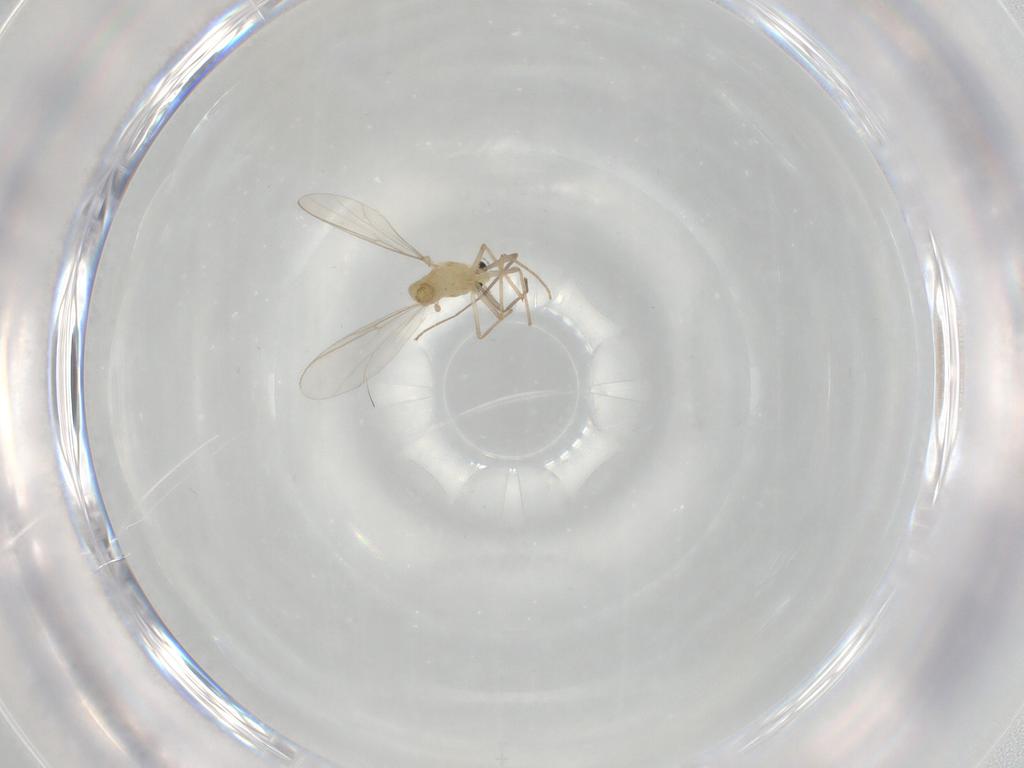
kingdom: Animalia
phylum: Arthropoda
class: Insecta
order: Diptera
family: Chironomidae
